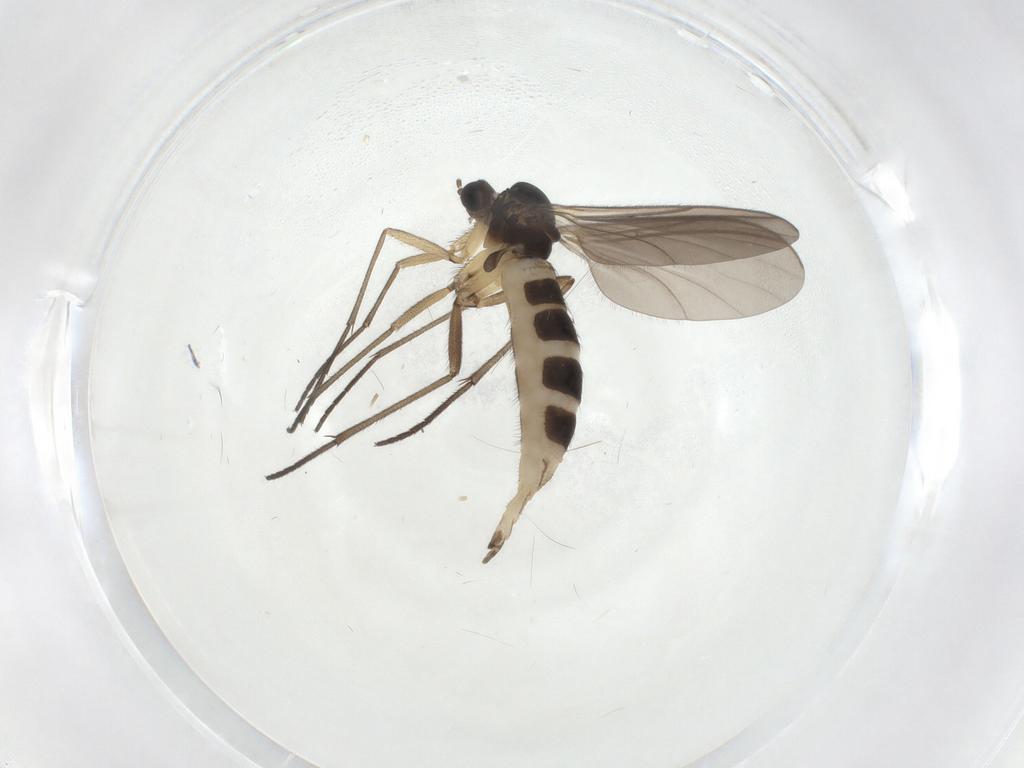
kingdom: Animalia
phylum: Arthropoda
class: Insecta
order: Diptera
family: Sciaridae
